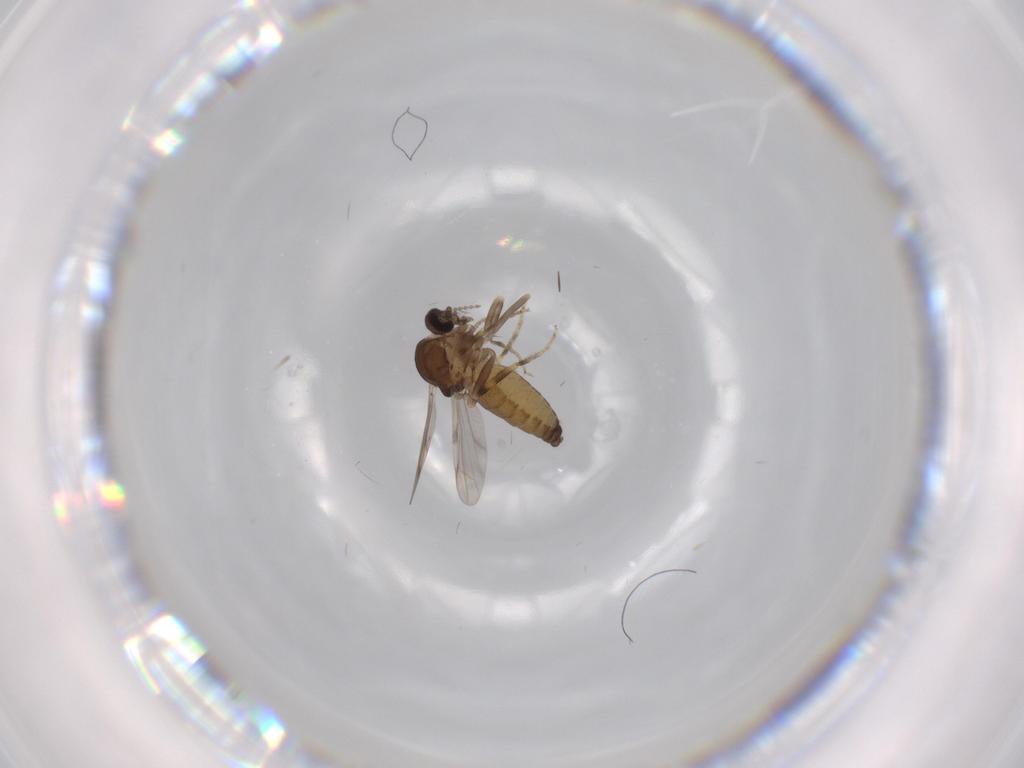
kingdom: Animalia
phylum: Arthropoda
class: Insecta
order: Diptera
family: Ceratopogonidae
